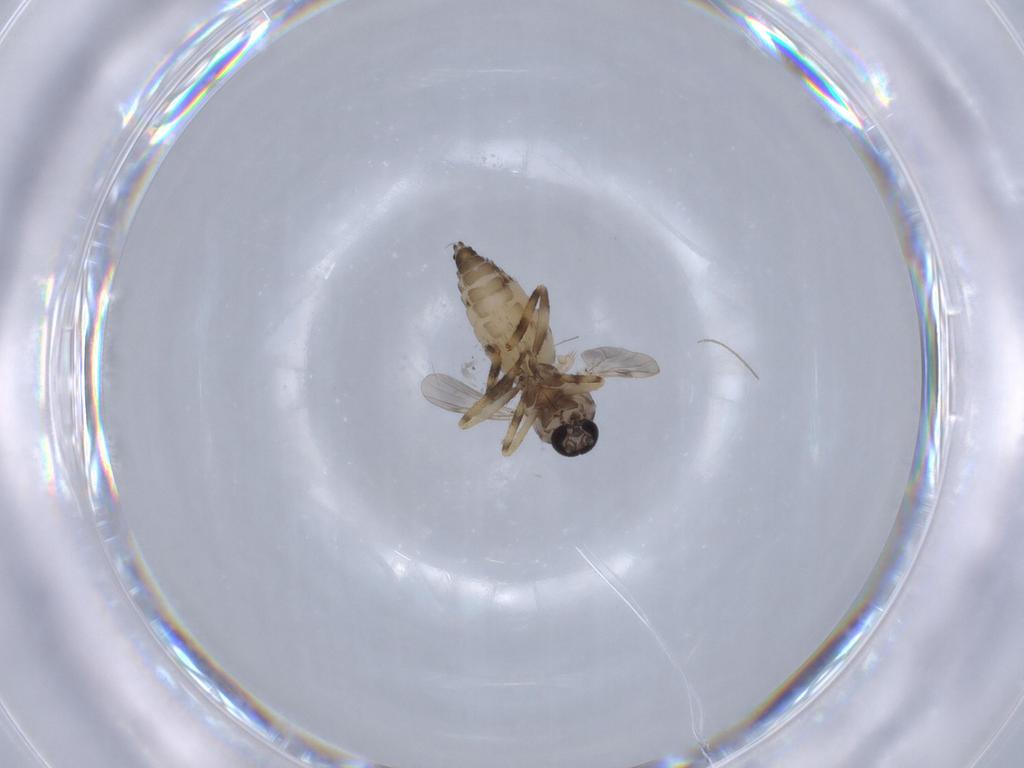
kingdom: Animalia
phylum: Arthropoda
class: Insecta
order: Diptera
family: Ceratopogonidae
